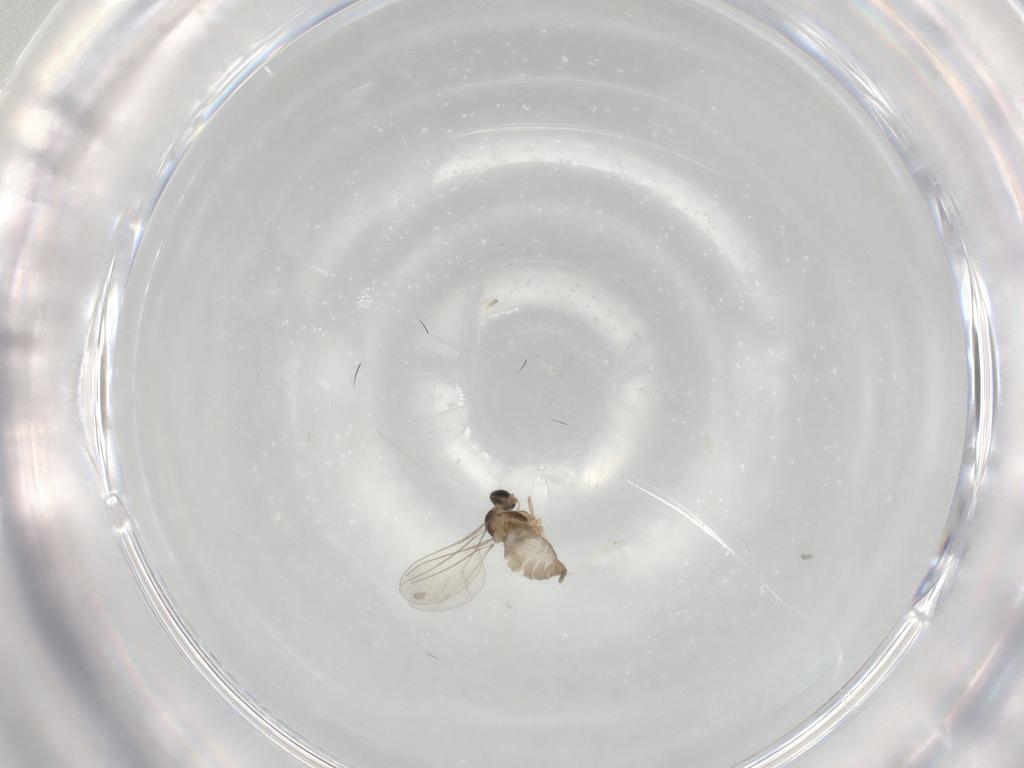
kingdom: Animalia
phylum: Arthropoda
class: Insecta
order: Diptera
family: Cecidomyiidae
